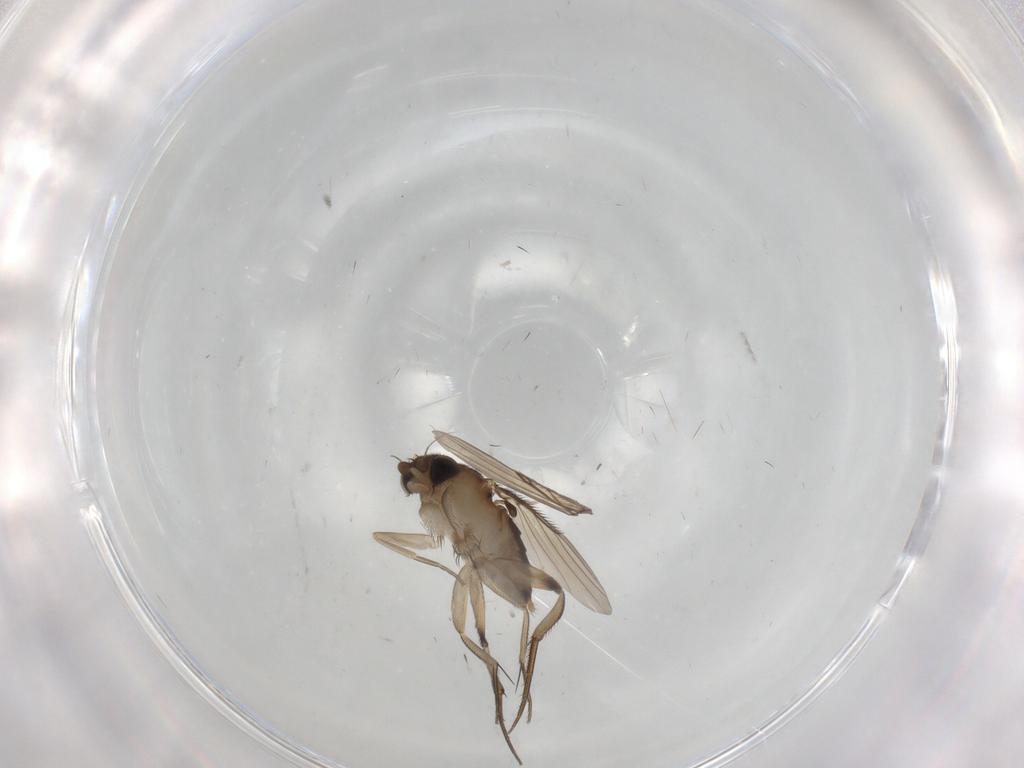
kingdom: Animalia
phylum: Arthropoda
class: Insecta
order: Diptera
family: Phoridae
